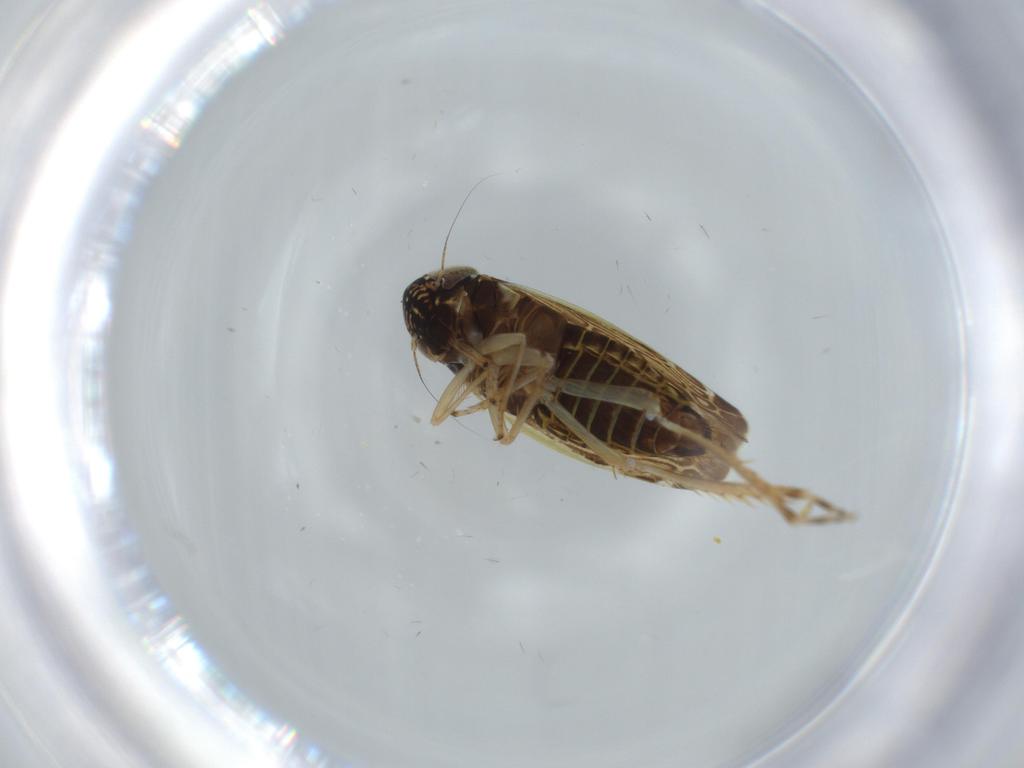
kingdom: Animalia
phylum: Arthropoda
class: Insecta
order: Hemiptera
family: Cicadellidae
